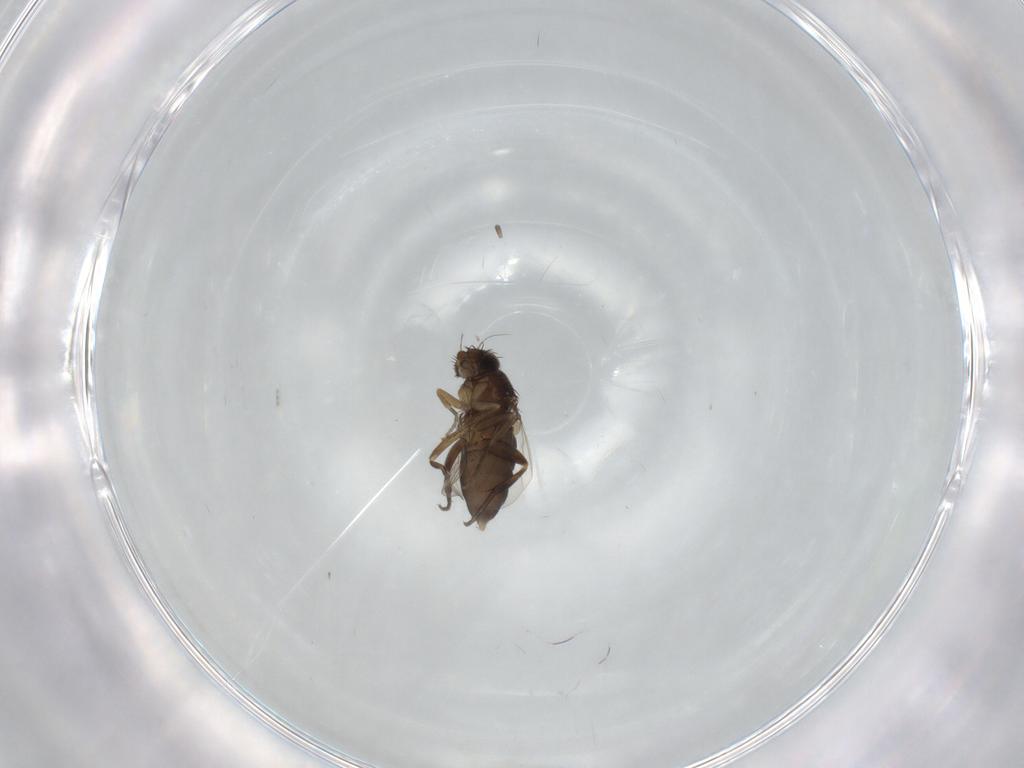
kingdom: Animalia
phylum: Arthropoda
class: Insecta
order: Diptera
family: Phoridae
